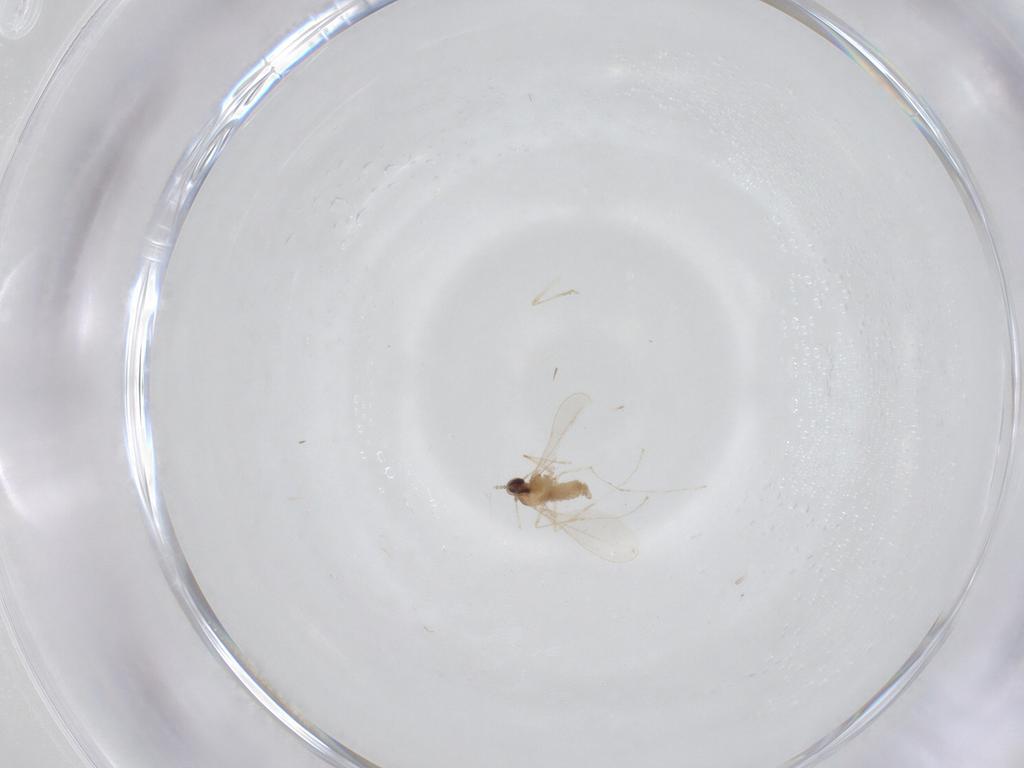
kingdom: Animalia
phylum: Arthropoda
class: Insecta
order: Diptera
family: Cecidomyiidae
